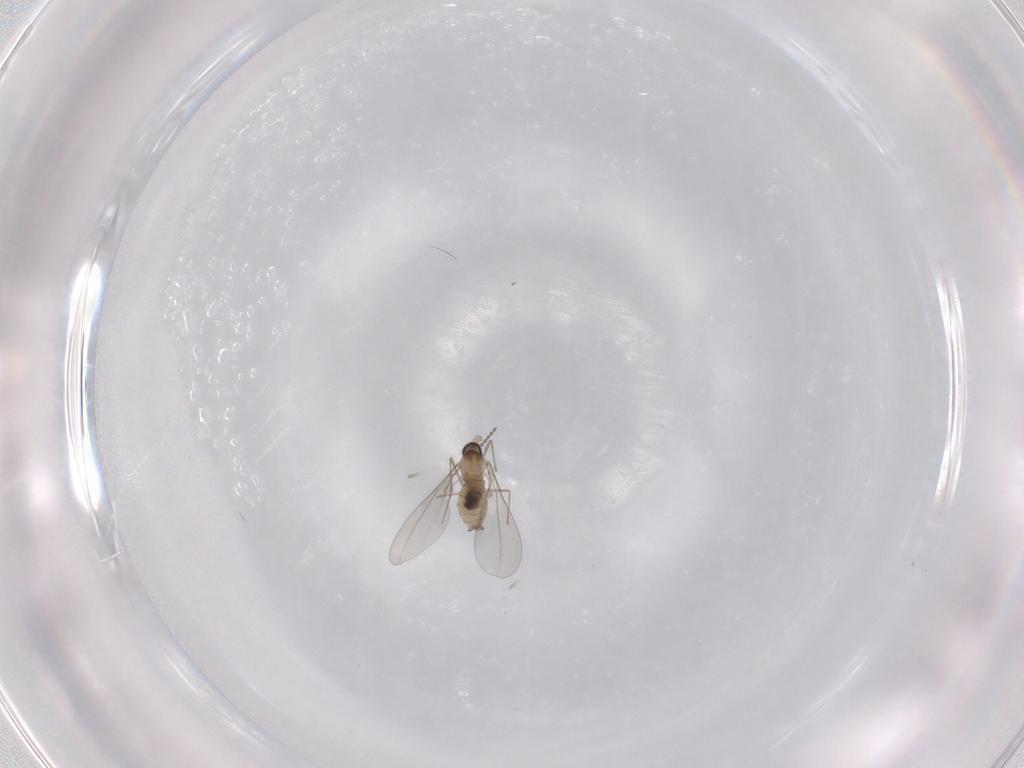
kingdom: Animalia
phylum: Arthropoda
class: Insecta
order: Diptera
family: Cecidomyiidae
